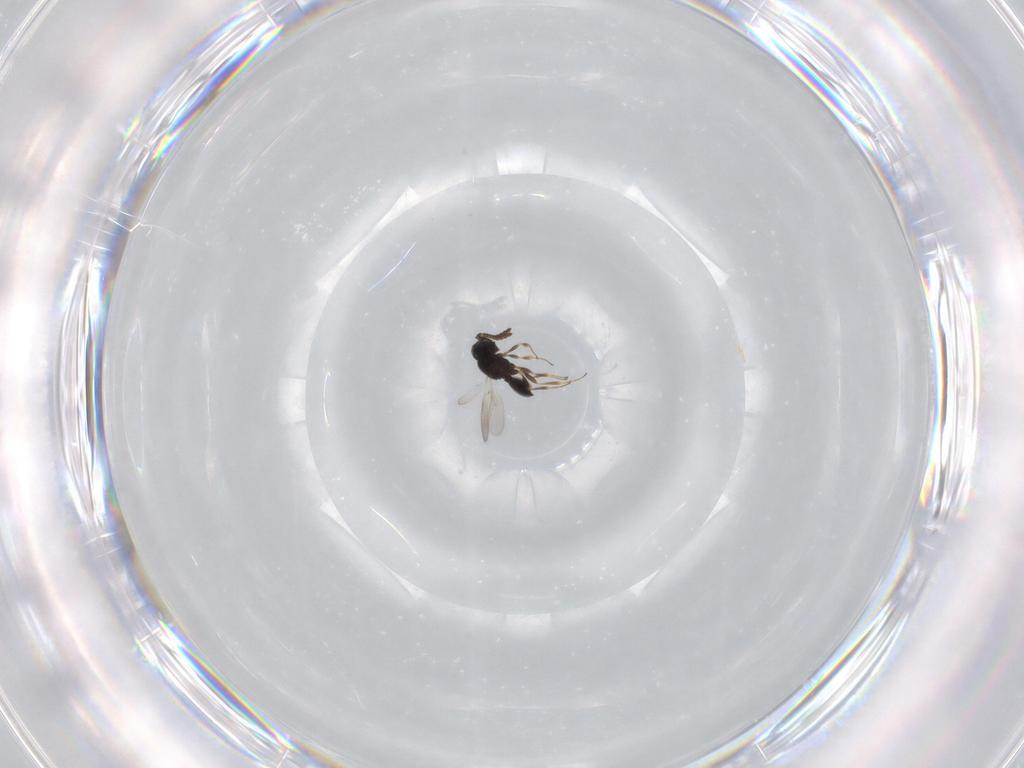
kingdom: Animalia
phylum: Arthropoda
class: Insecta
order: Hymenoptera
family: Scelionidae
